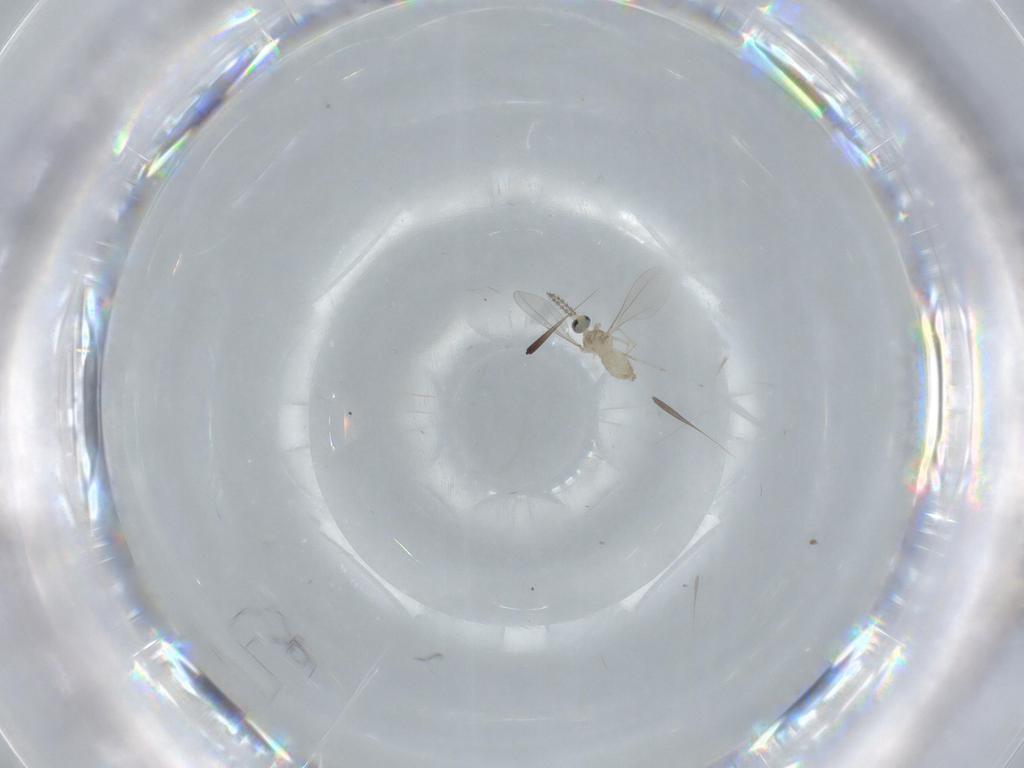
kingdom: Animalia
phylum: Arthropoda
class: Insecta
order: Diptera
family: Cecidomyiidae
